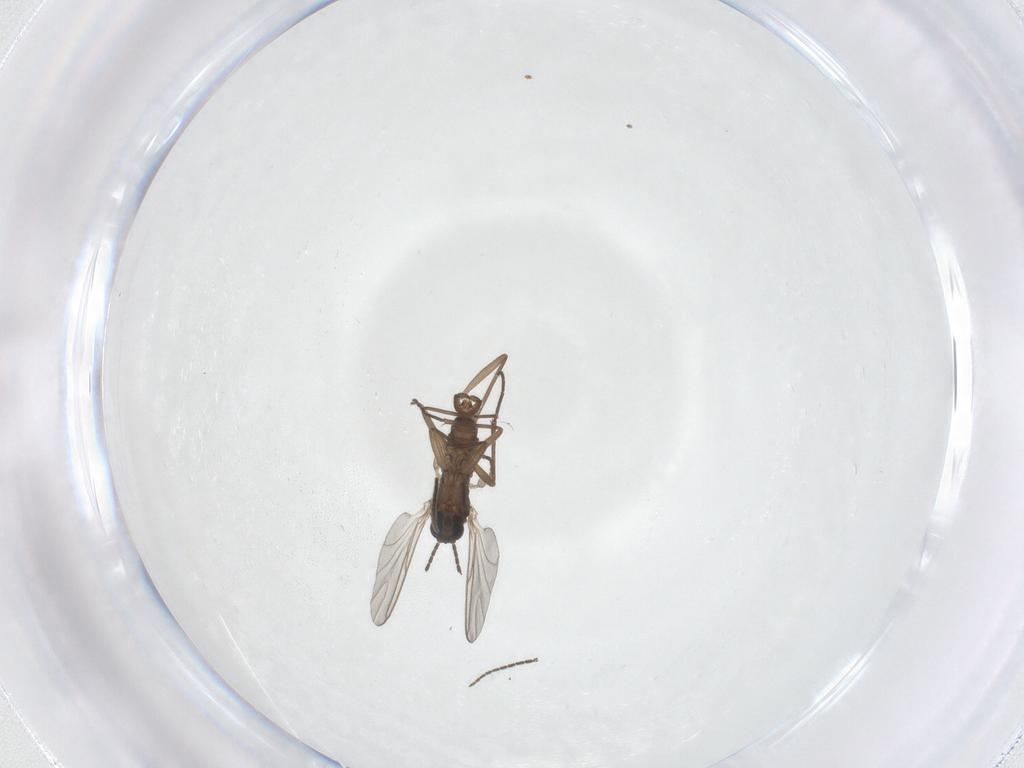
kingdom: Animalia
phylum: Arthropoda
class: Insecta
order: Diptera
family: Sciaridae
